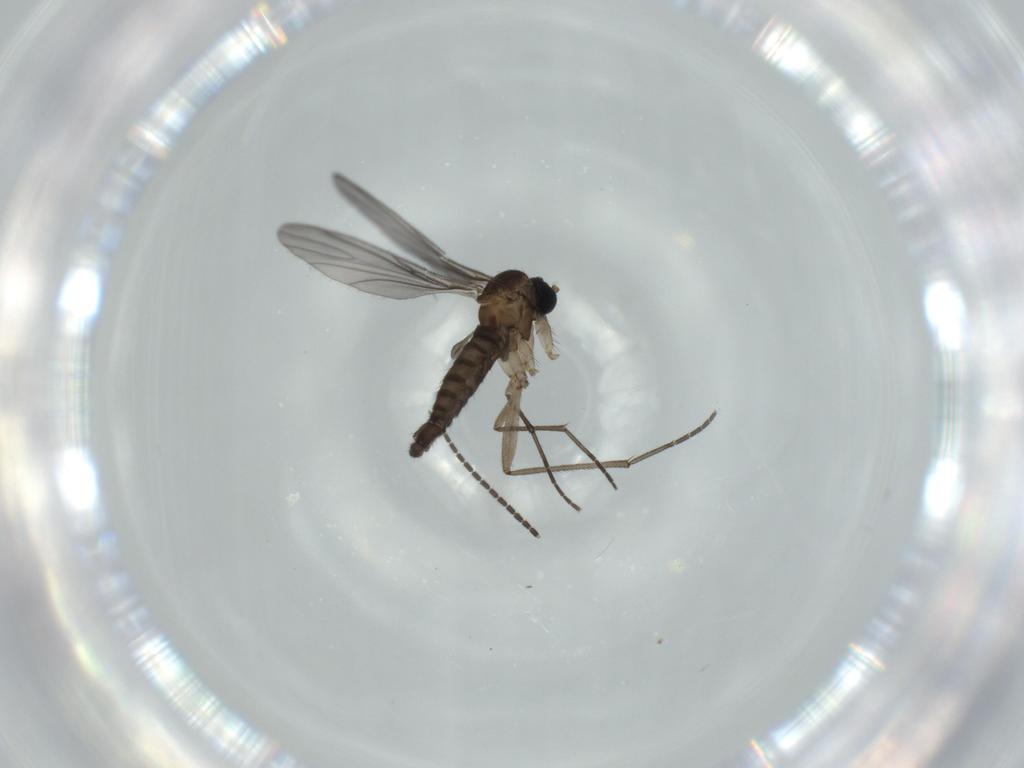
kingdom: Animalia
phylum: Arthropoda
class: Insecta
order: Diptera
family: Sciaridae
